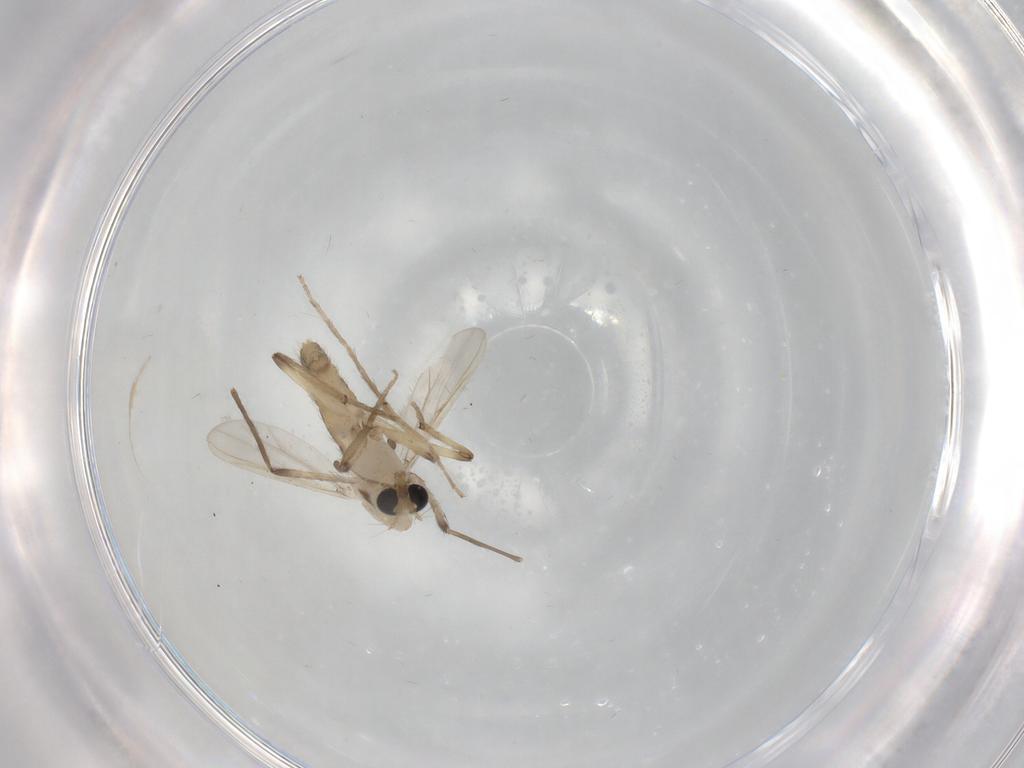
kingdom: Animalia
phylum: Arthropoda
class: Insecta
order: Diptera
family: Chironomidae
